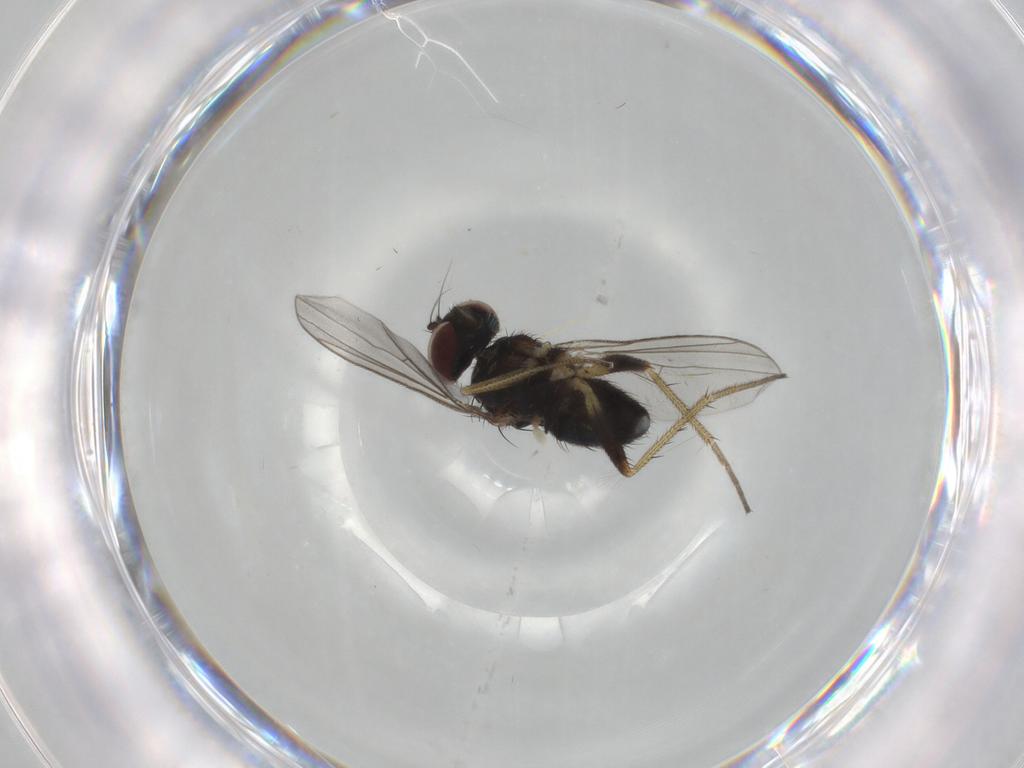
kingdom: Animalia
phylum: Arthropoda
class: Insecta
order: Diptera
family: Dolichopodidae
